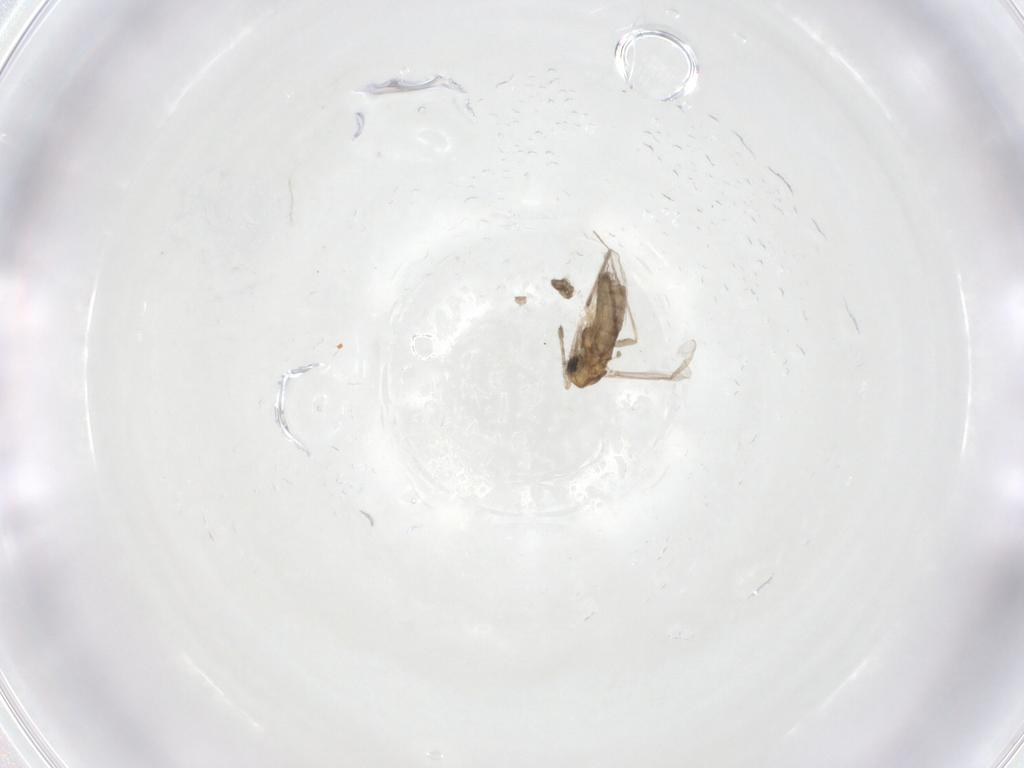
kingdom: Animalia
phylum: Arthropoda
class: Insecta
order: Diptera
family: Chironomidae
